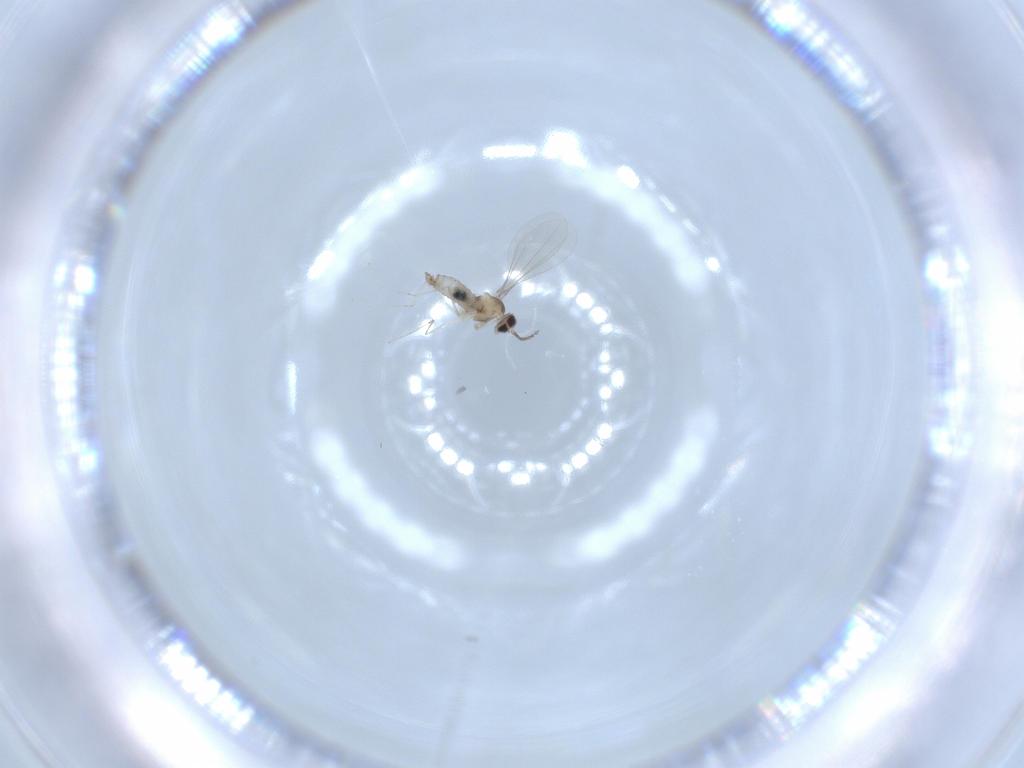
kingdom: Animalia
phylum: Arthropoda
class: Insecta
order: Diptera
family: Cecidomyiidae
